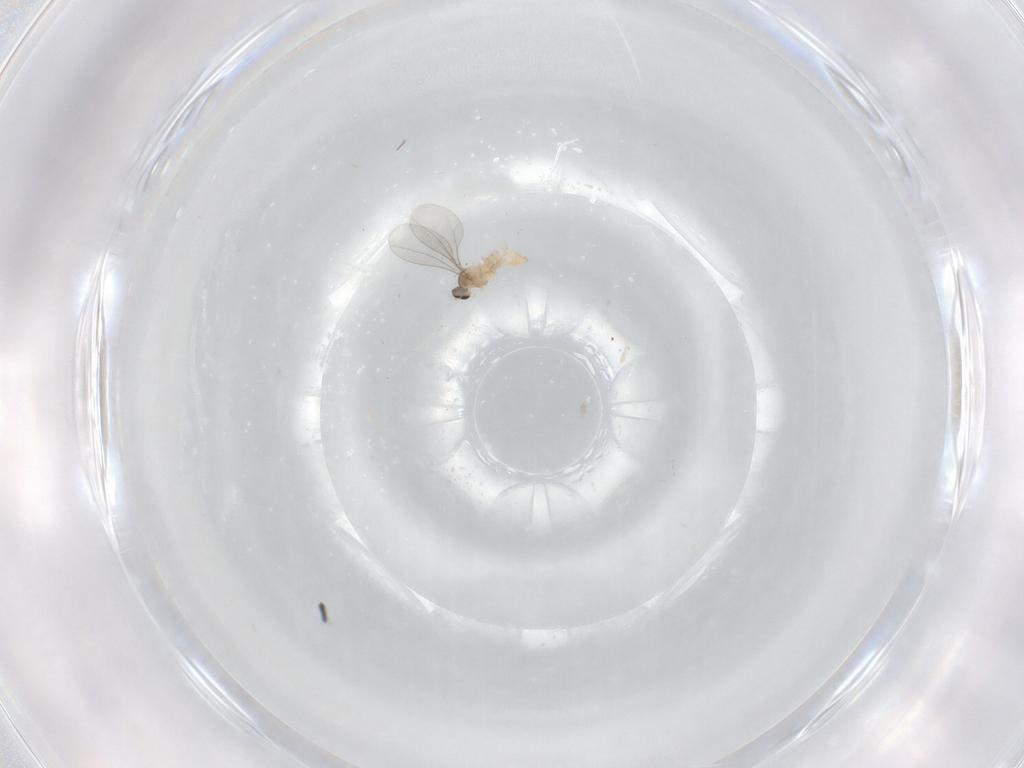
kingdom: Animalia
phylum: Arthropoda
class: Insecta
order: Diptera
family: Cecidomyiidae
